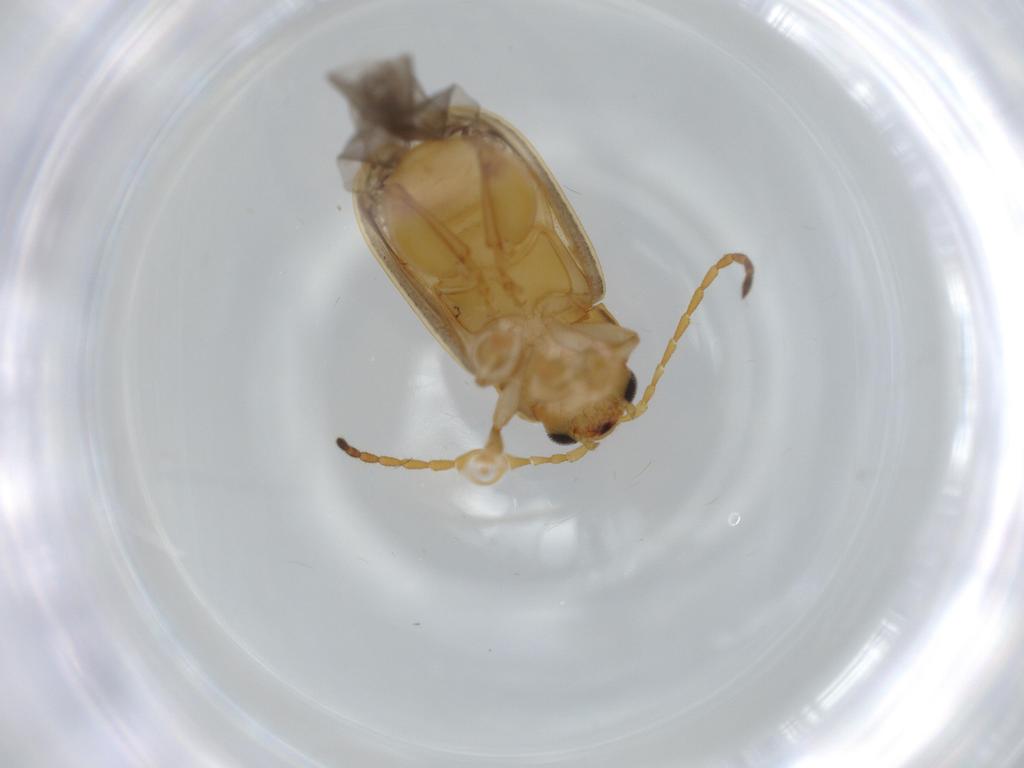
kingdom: Animalia
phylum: Arthropoda
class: Insecta
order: Coleoptera
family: Chrysomelidae
